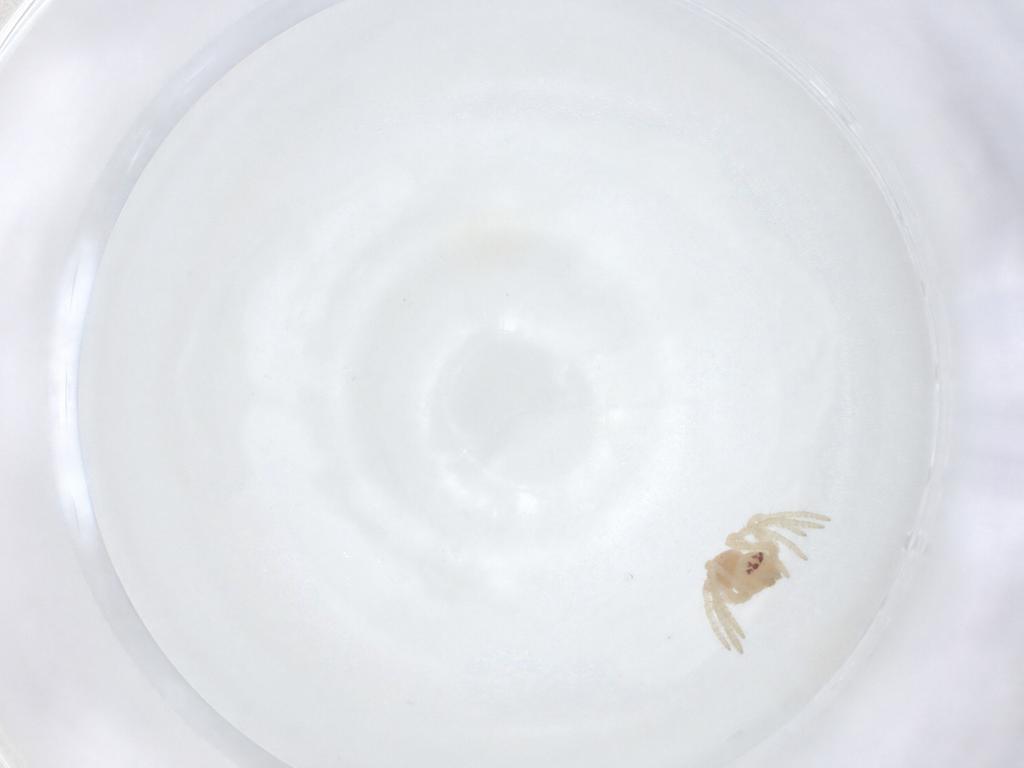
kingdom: Animalia
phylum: Arthropoda
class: Arachnida
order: Araneae
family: Theridiidae
